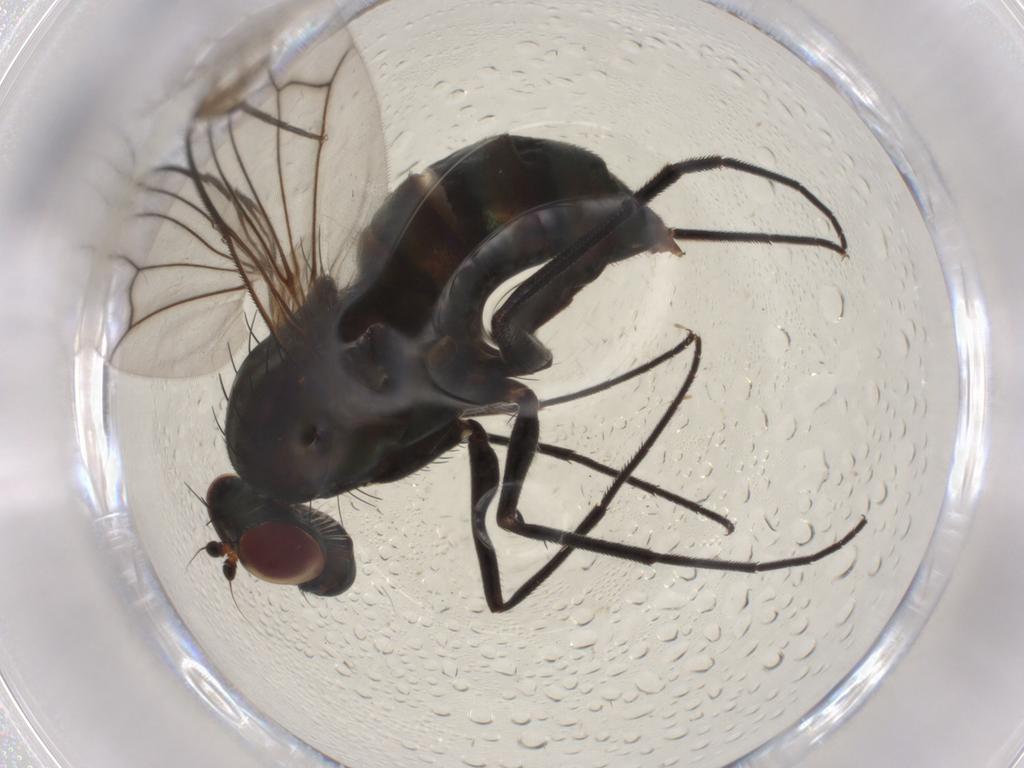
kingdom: Animalia
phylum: Arthropoda
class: Insecta
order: Diptera
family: Dolichopodidae
